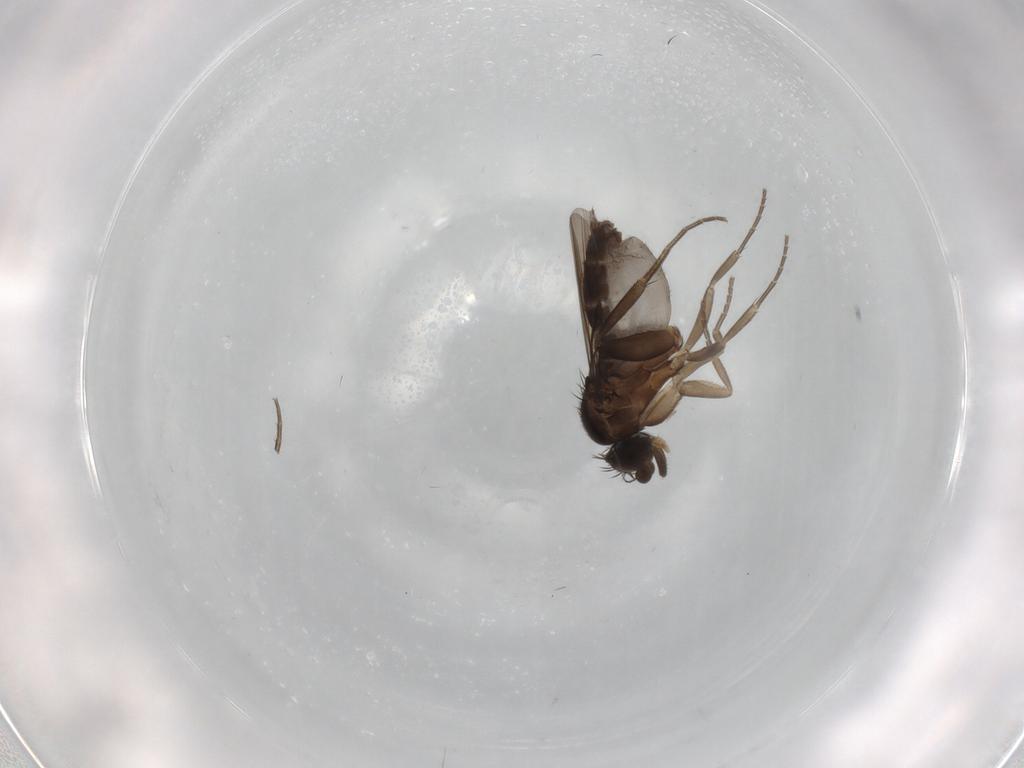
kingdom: Animalia
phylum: Arthropoda
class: Insecta
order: Diptera
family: Phoridae
